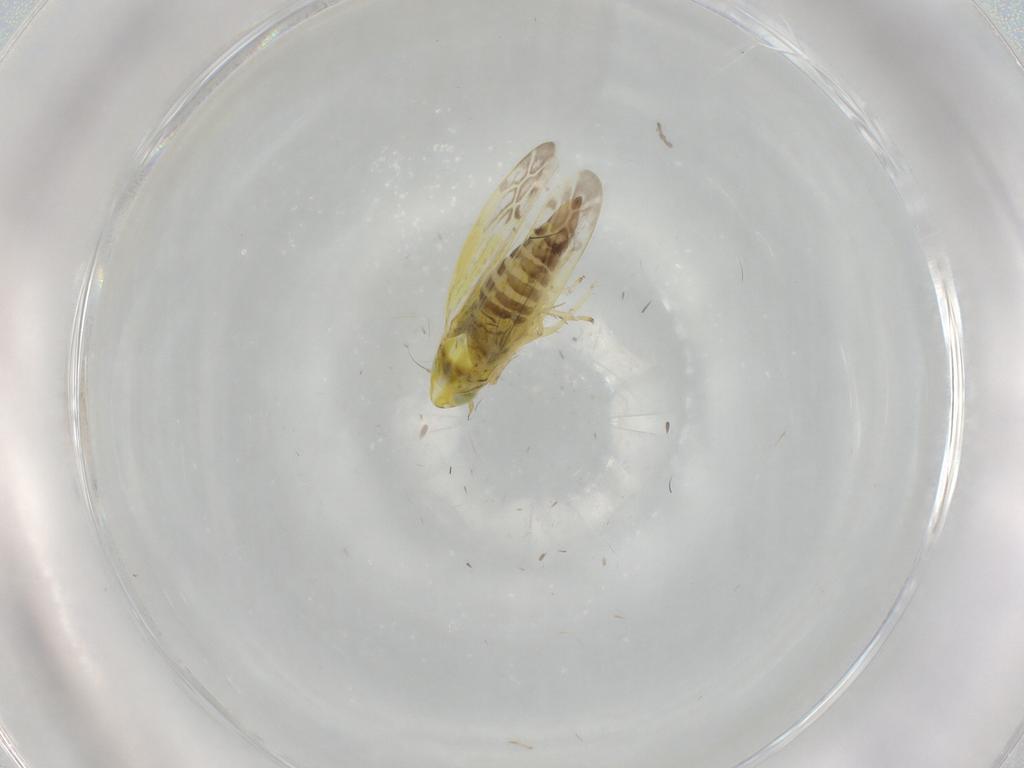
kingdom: Animalia
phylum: Arthropoda
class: Insecta
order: Hemiptera
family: Cicadellidae
